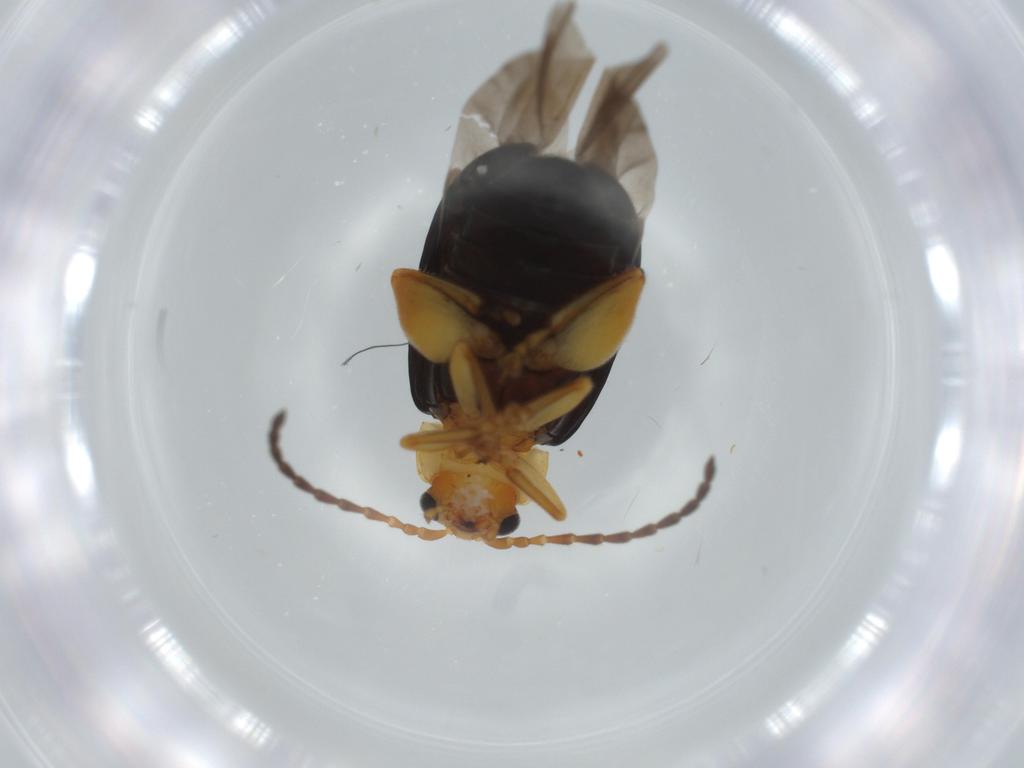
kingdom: Animalia
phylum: Arthropoda
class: Insecta
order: Coleoptera
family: Chrysomelidae
